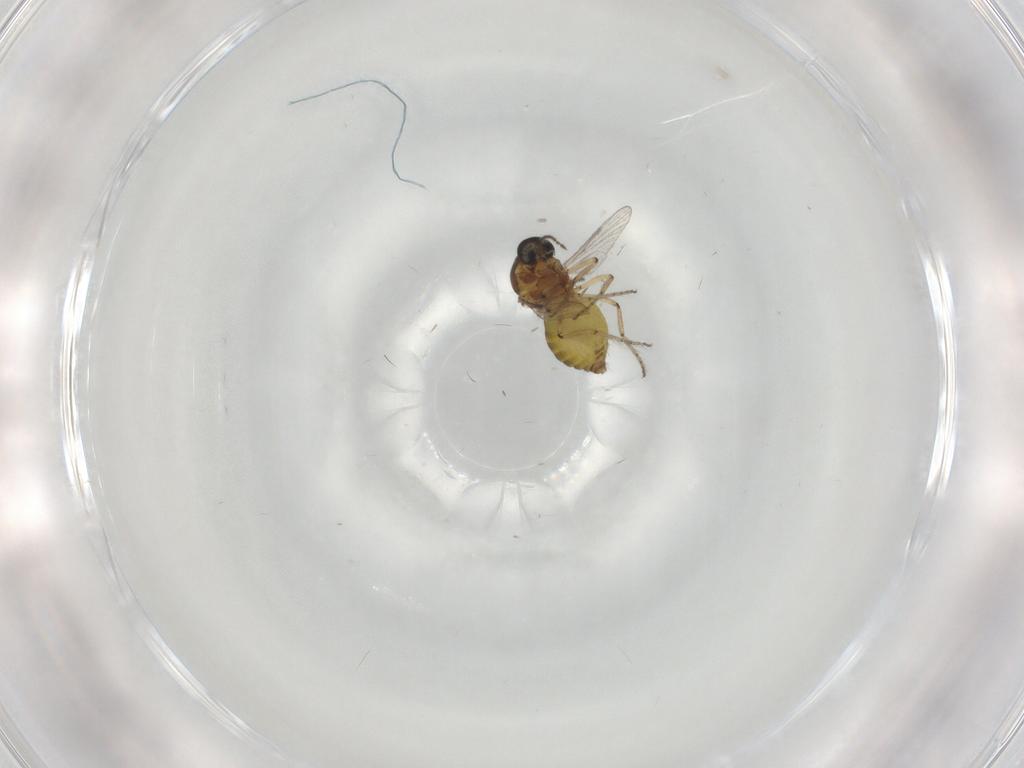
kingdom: Animalia
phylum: Arthropoda
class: Insecta
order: Diptera
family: Ceratopogonidae
